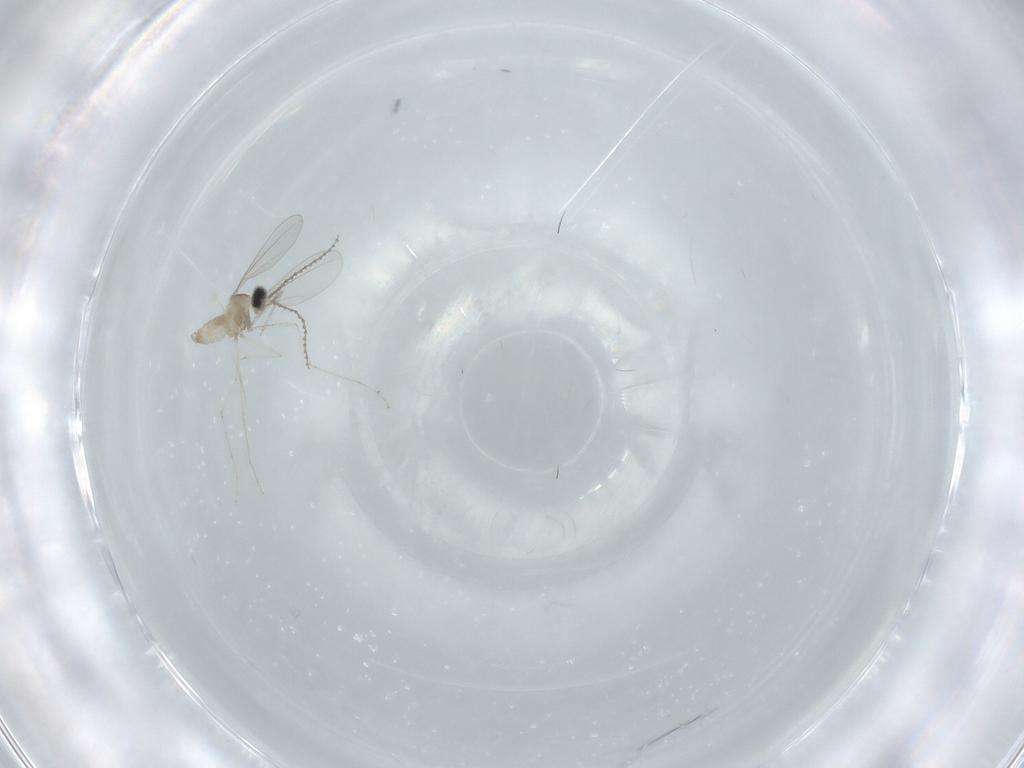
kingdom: Animalia
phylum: Arthropoda
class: Insecta
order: Diptera
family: Cecidomyiidae
